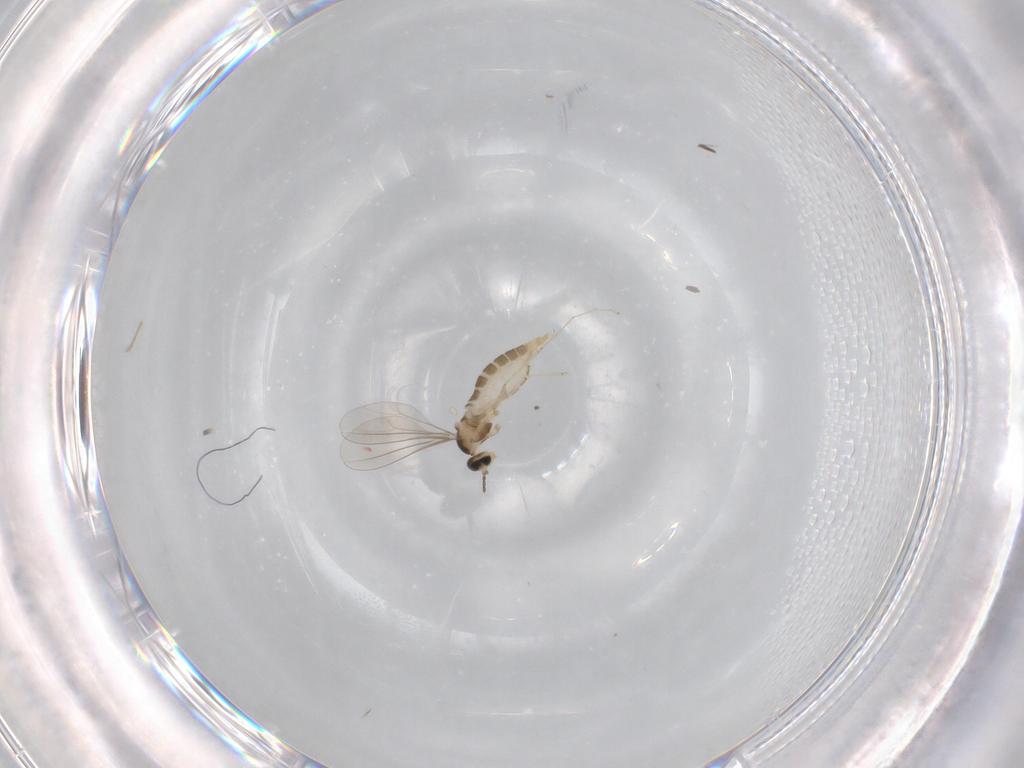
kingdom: Animalia
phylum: Arthropoda
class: Insecta
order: Diptera
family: Cecidomyiidae
